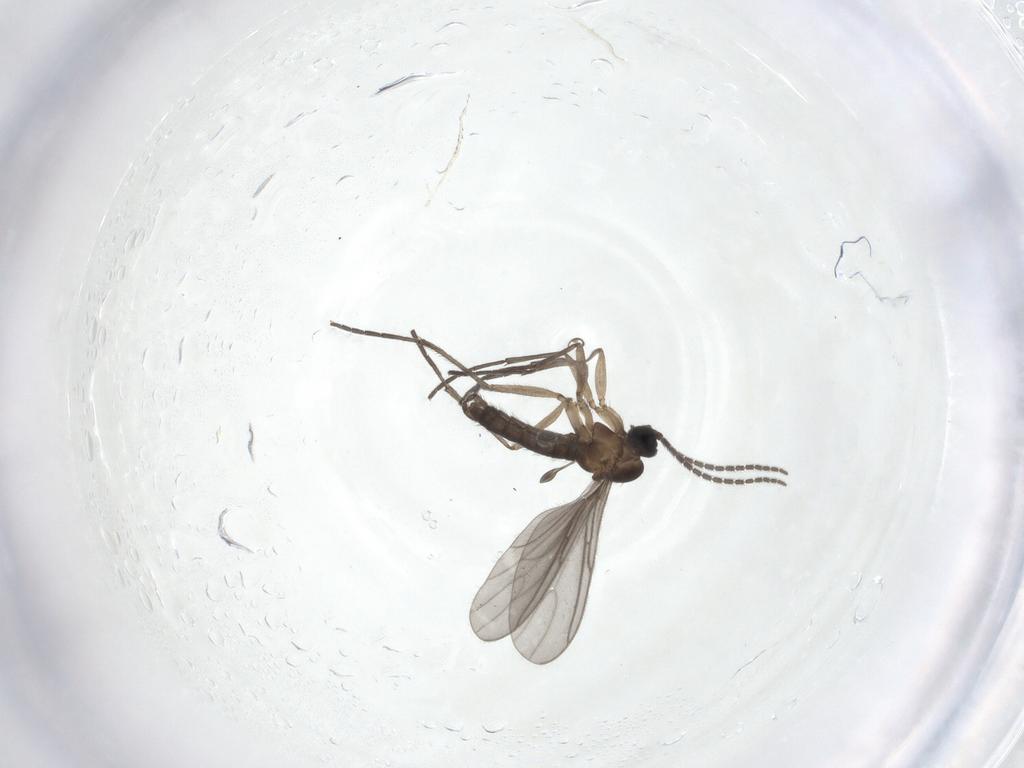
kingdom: Animalia
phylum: Arthropoda
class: Insecta
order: Diptera
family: Sciaridae
